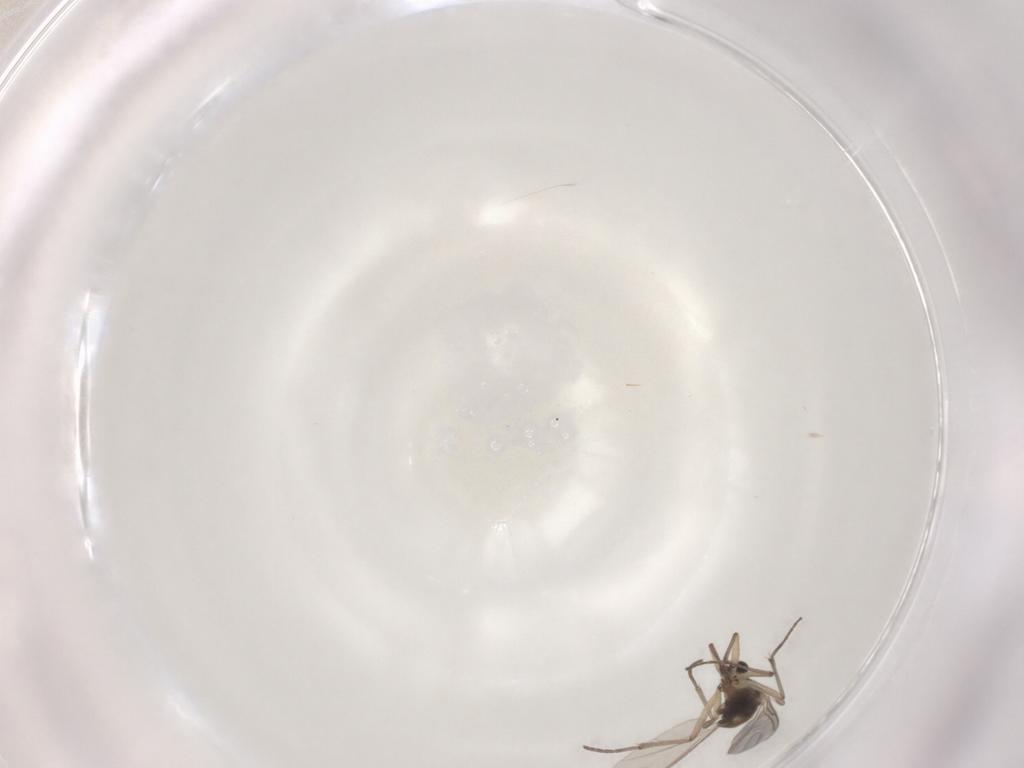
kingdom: Animalia
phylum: Arthropoda
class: Insecta
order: Diptera
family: Sciaridae
